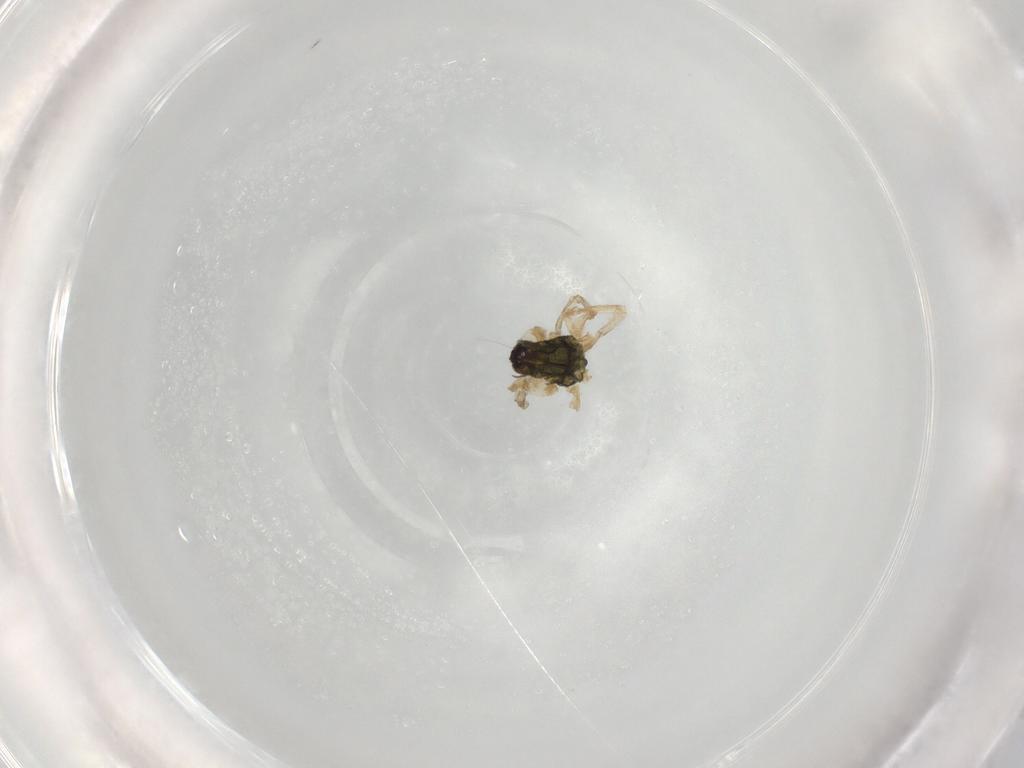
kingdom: Animalia
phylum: Arthropoda
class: Arachnida
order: Araneae
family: Trachelidae
